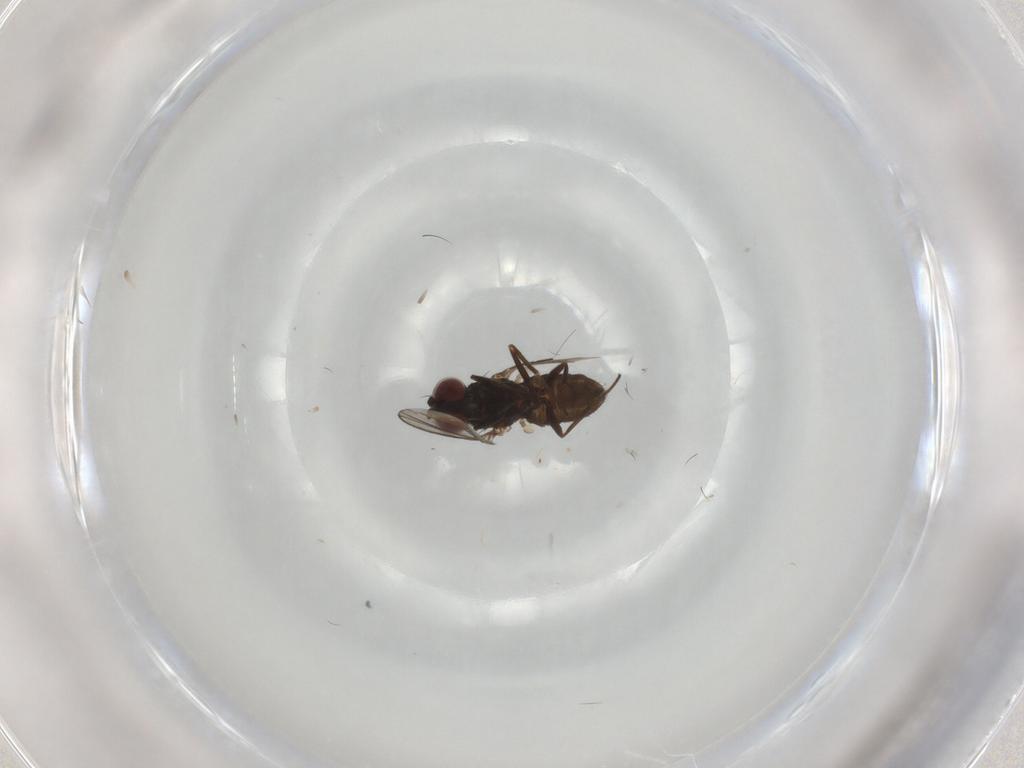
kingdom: Animalia
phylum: Arthropoda
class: Insecta
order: Diptera
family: Dolichopodidae
